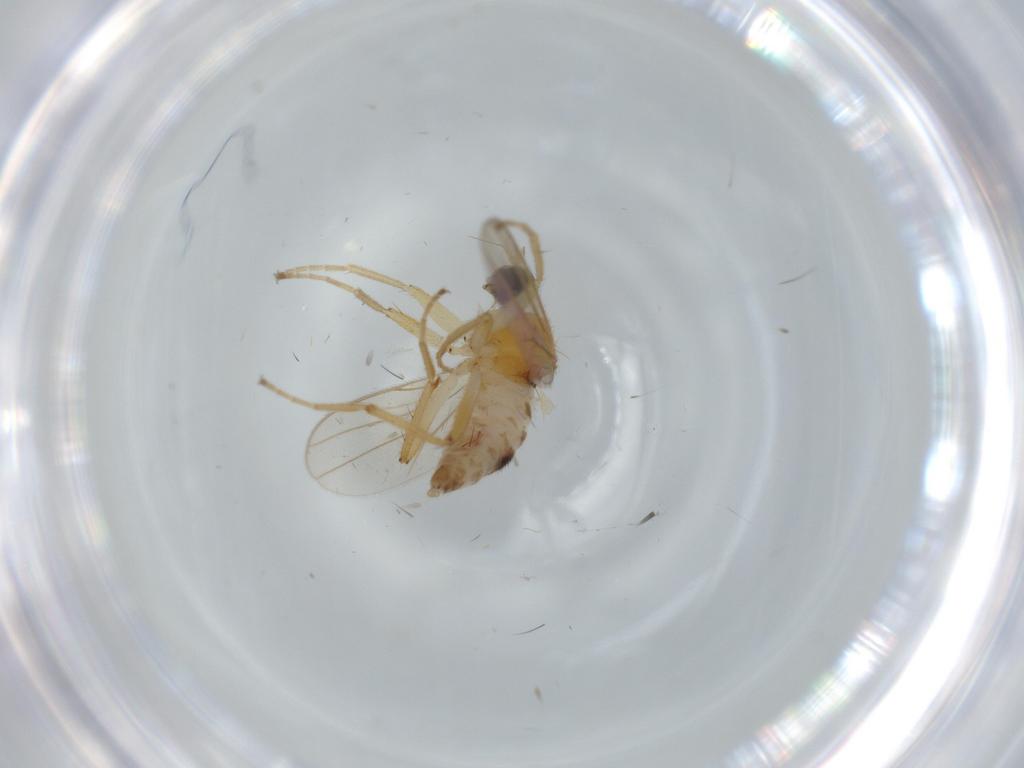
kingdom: Animalia
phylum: Arthropoda
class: Insecta
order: Diptera
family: Hybotidae
